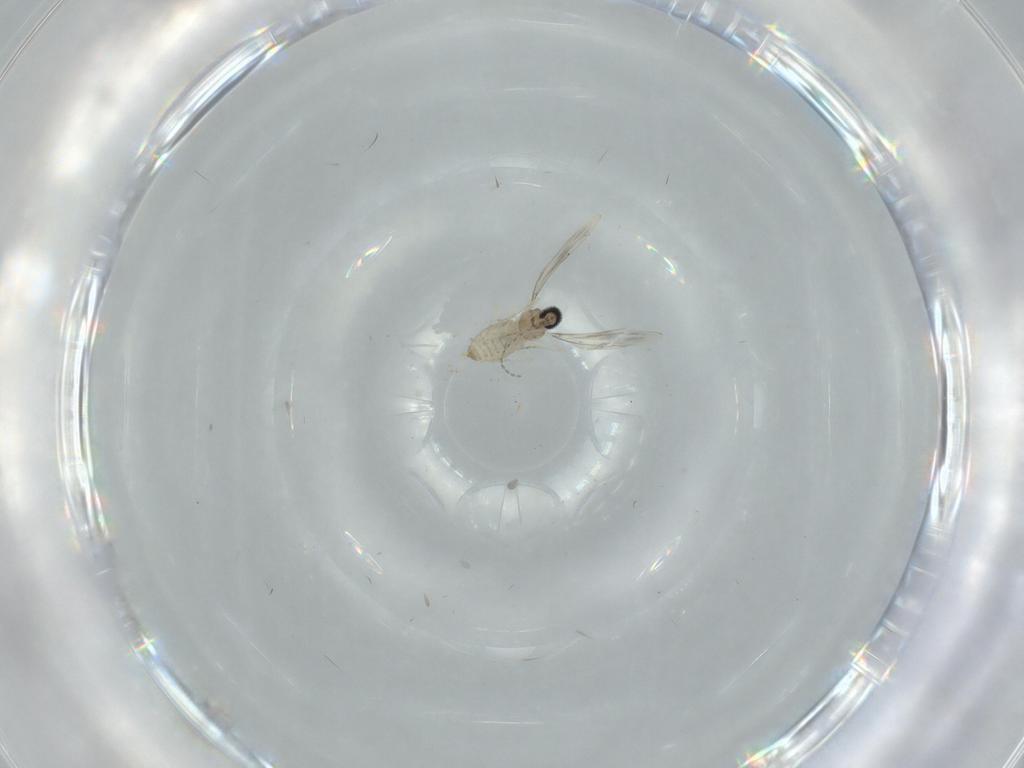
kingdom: Animalia
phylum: Arthropoda
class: Insecta
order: Diptera
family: Cecidomyiidae
